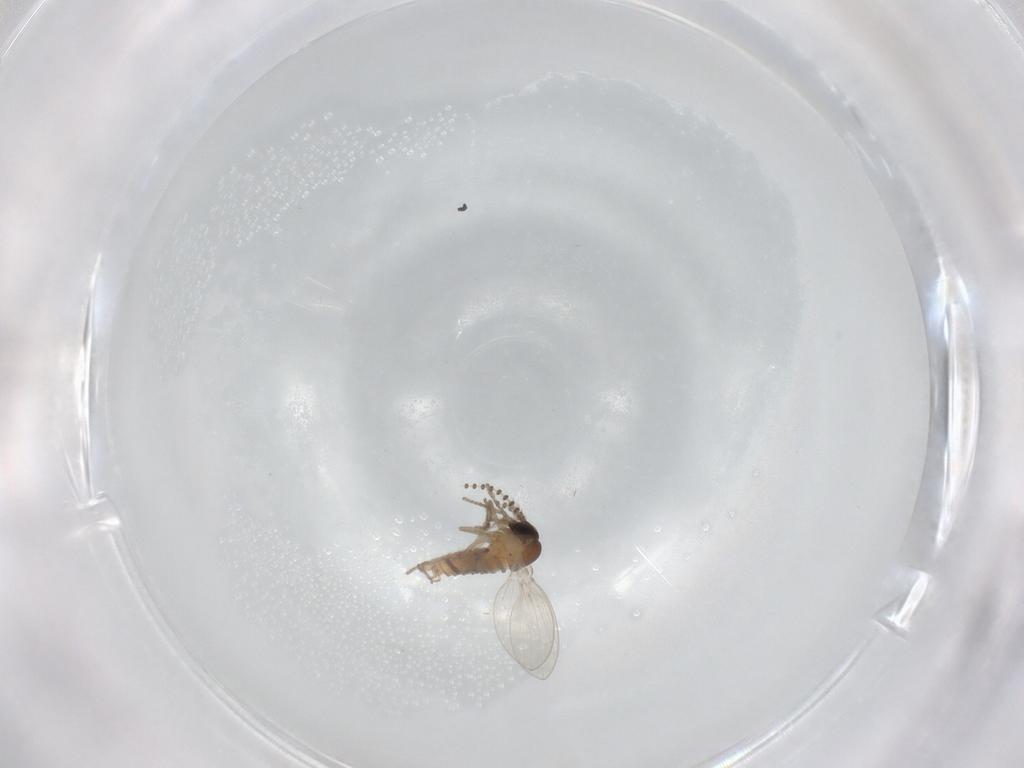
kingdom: Animalia
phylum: Arthropoda
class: Insecta
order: Diptera
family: Psychodidae
